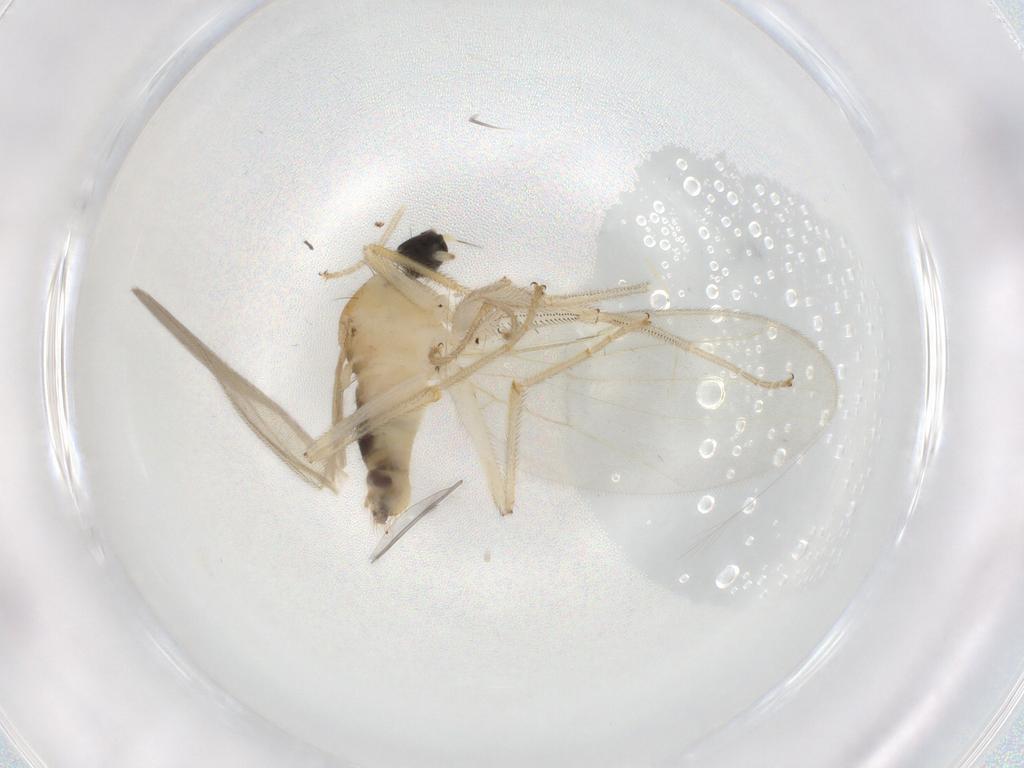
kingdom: Animalia
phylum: Arthropoda
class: Insecta
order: Diptera
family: Hybotidae
